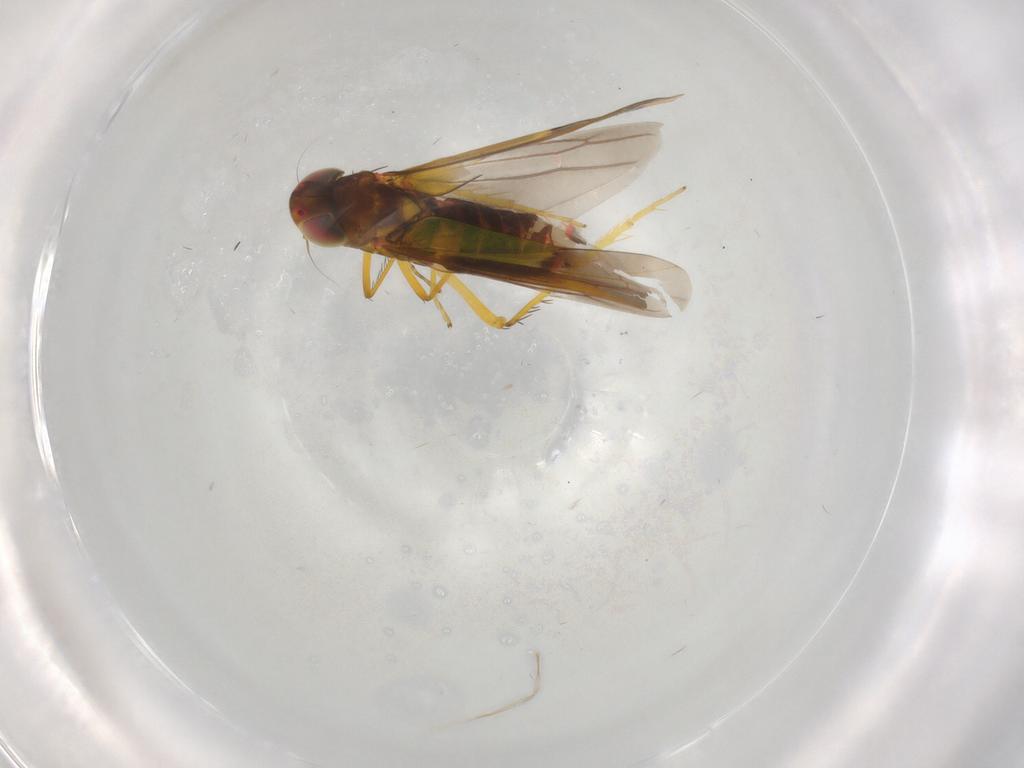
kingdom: Animalia
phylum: Arthropoda
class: Insecta
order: Hemiptera
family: Cicadellidae
